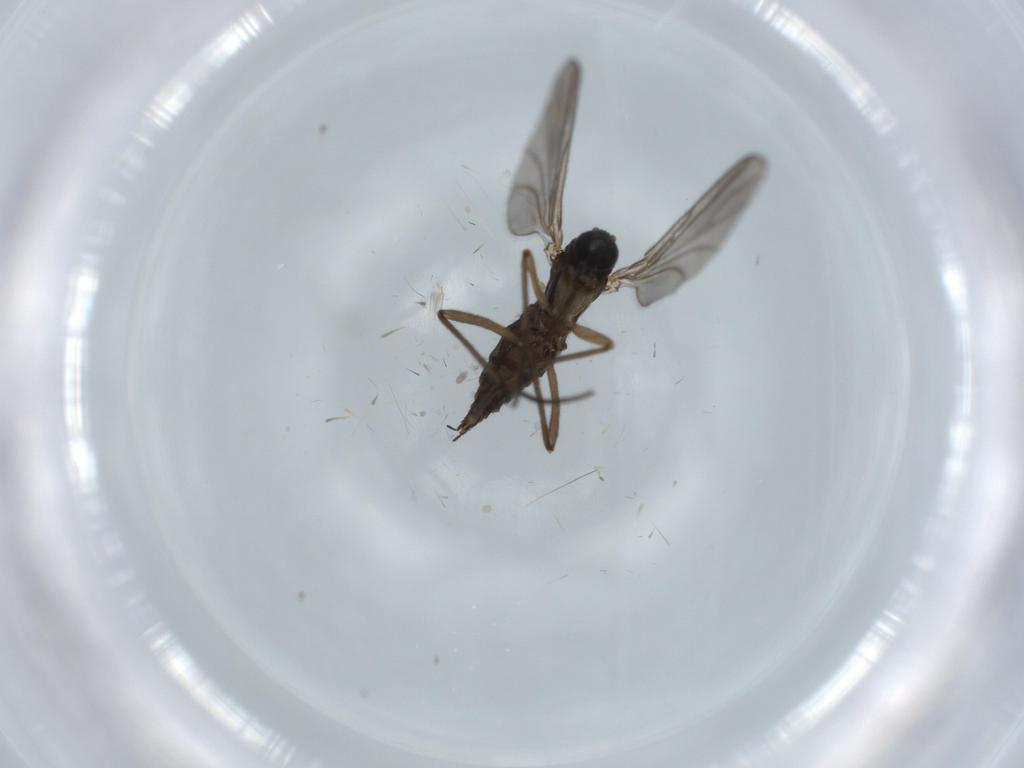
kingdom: Animalia
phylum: Arthropoda
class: Insecta
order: Diptera
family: Sciaridae
